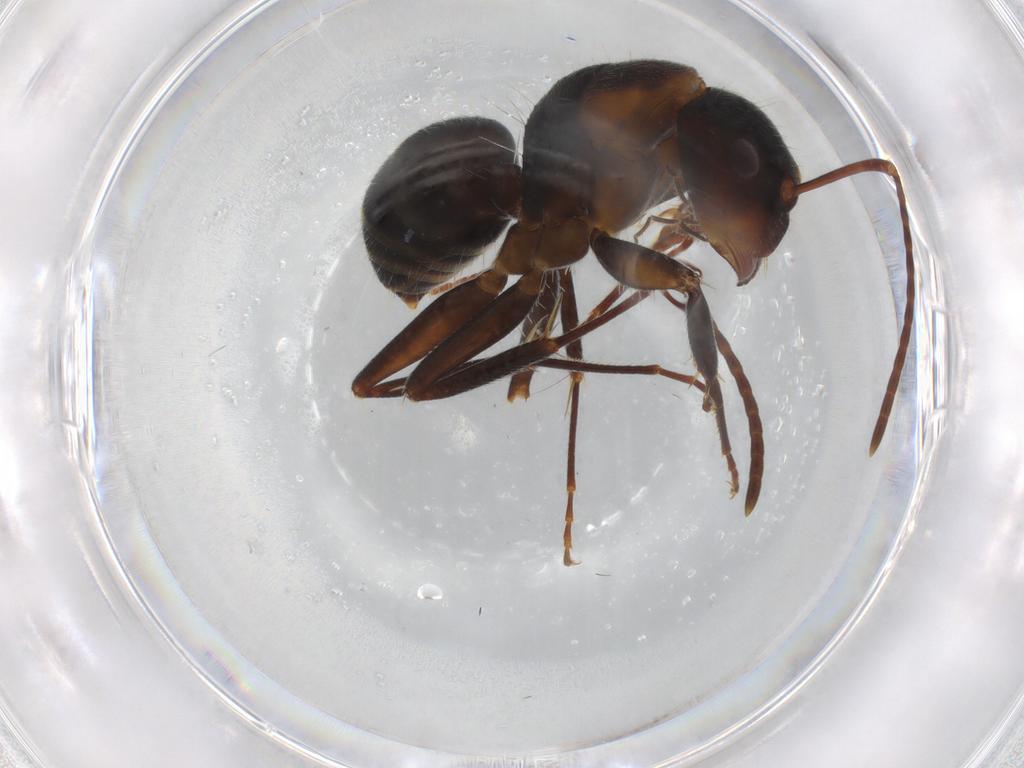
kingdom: Animalia
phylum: Arthropoda
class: Insecta
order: Hymenoptera
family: Formicidae
